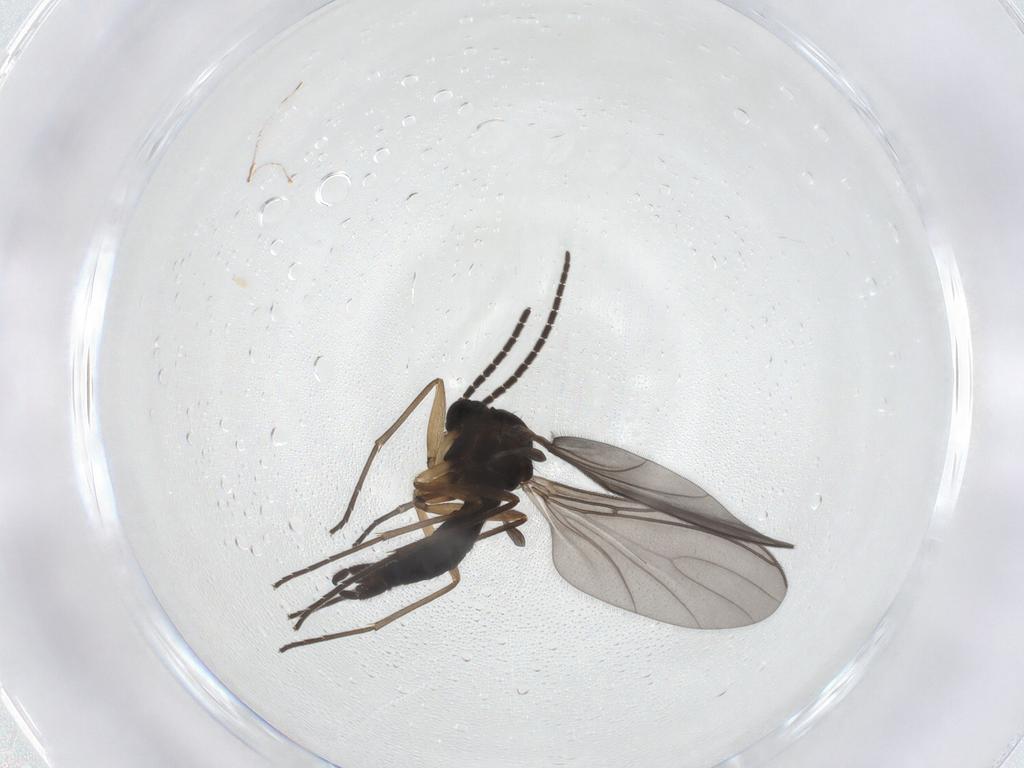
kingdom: Animalia
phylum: Arthropoda
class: Insecta
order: Diptera
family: Sciaridae
